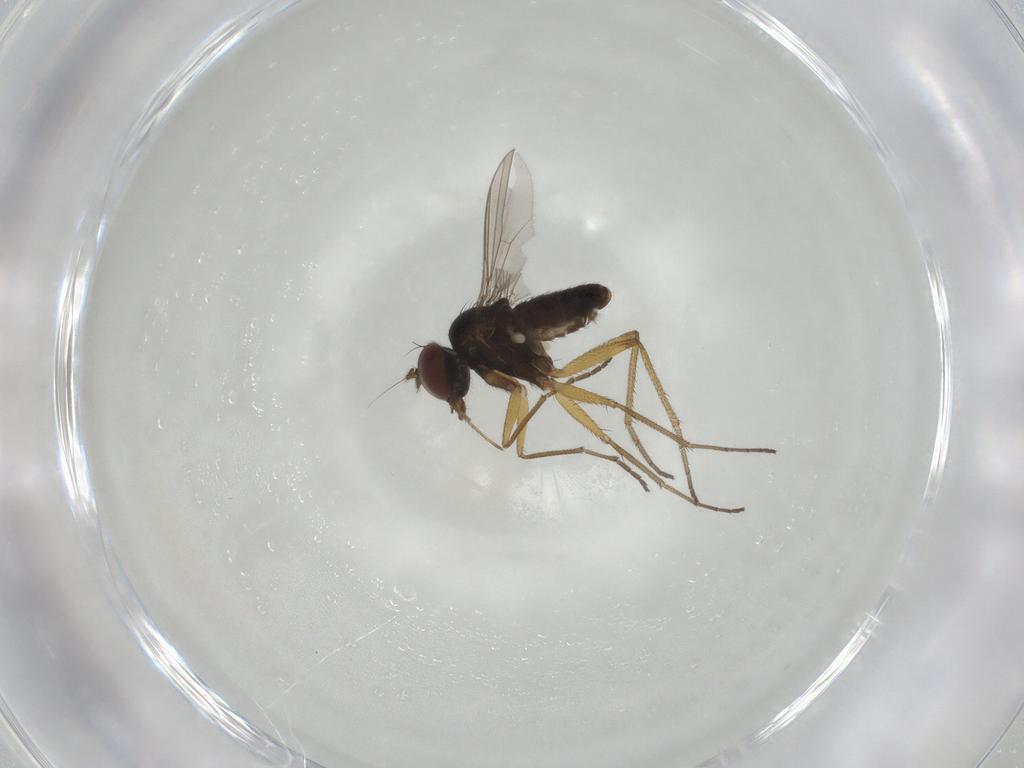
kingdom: Animalia
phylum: Arthropoda
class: Insecta
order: Diptera
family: Dolichopodidae
